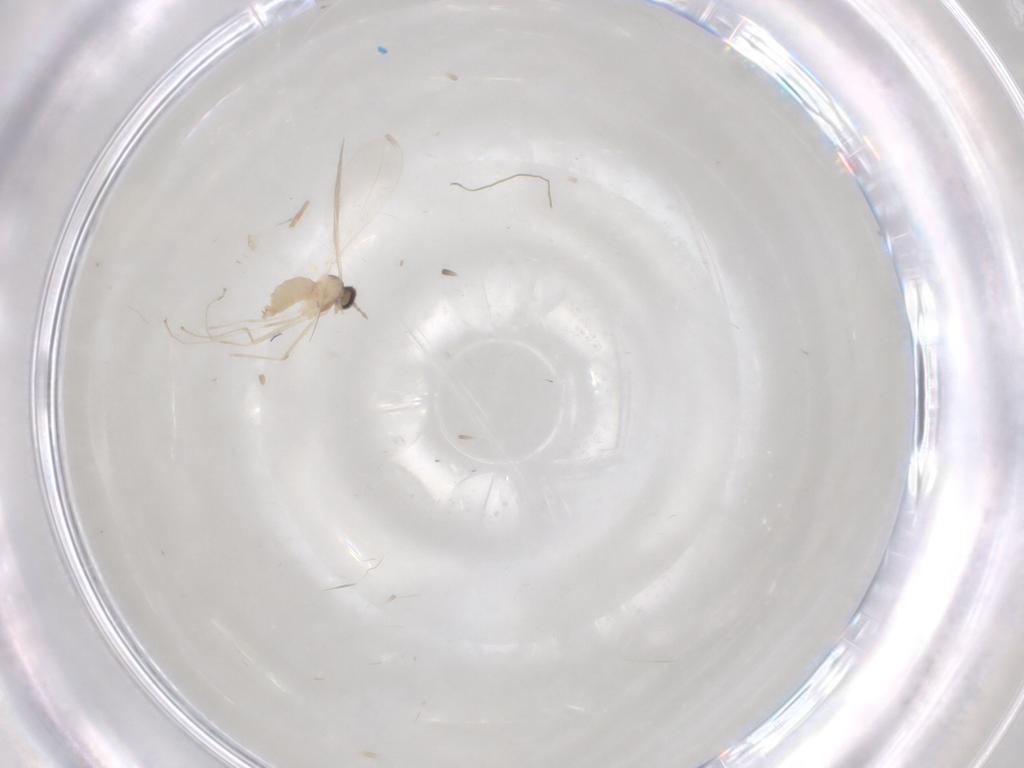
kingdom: Animalia
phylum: Arthropoda
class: Insecta
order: Diptera
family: Cecidomyiidae
